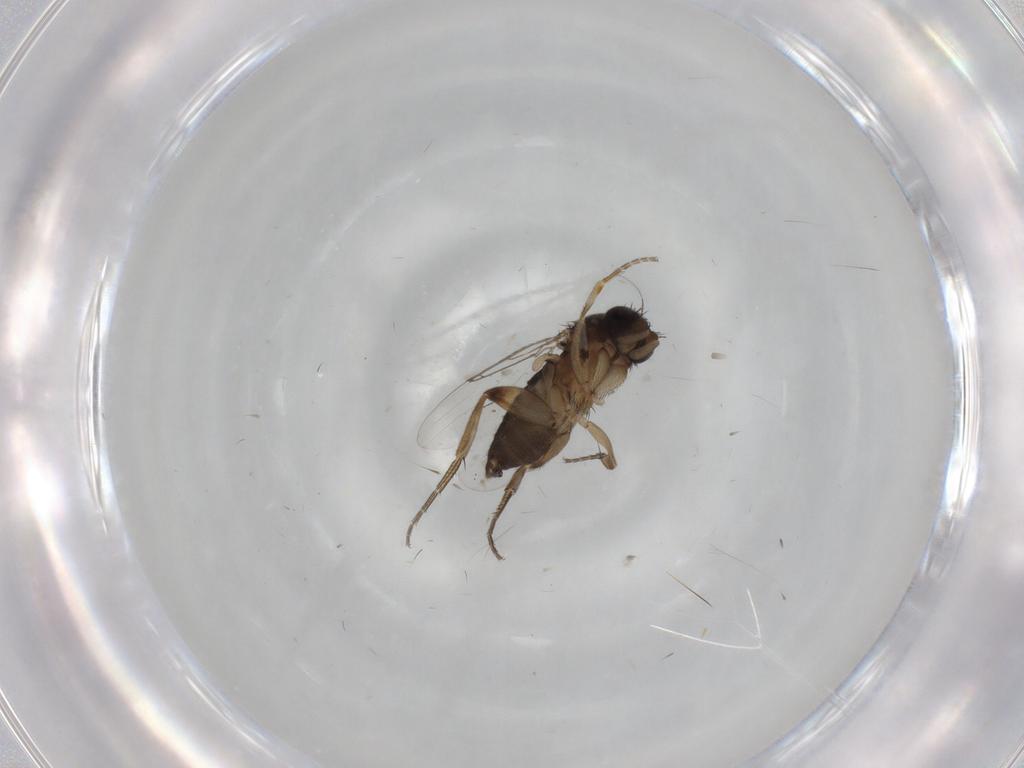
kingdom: Animalia
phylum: Arthropoda
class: Insecta
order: Diptera
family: Phoridae
